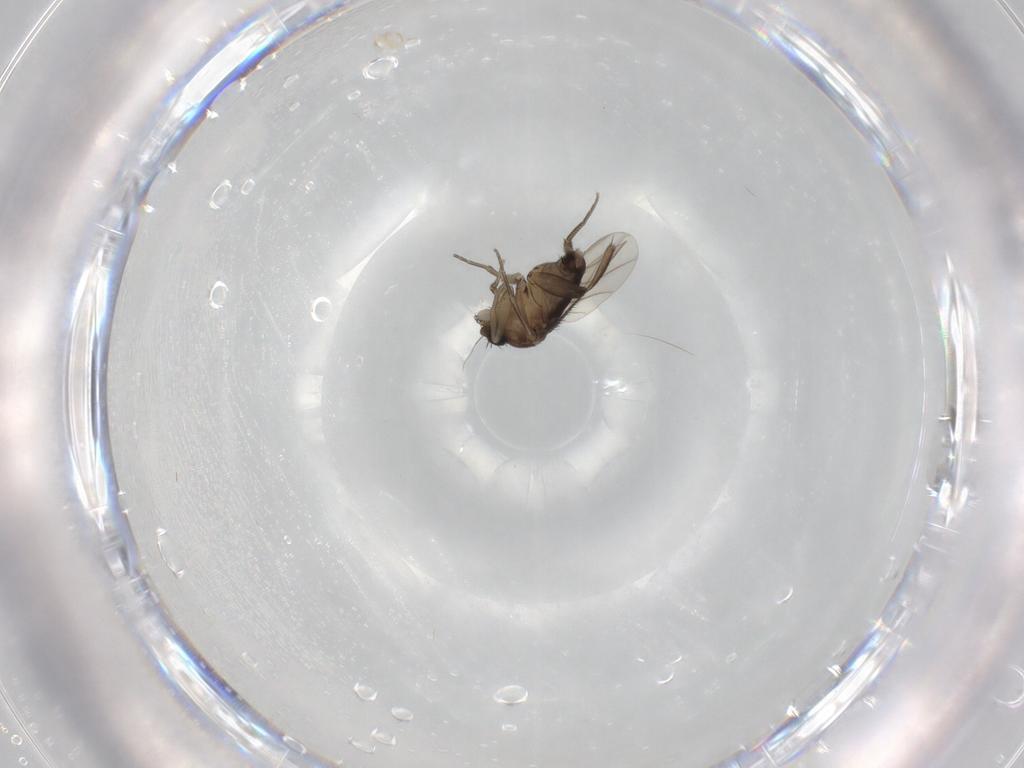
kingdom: Animalia
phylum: Arthropoda
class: Insecta
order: Diptera
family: Phoridae
